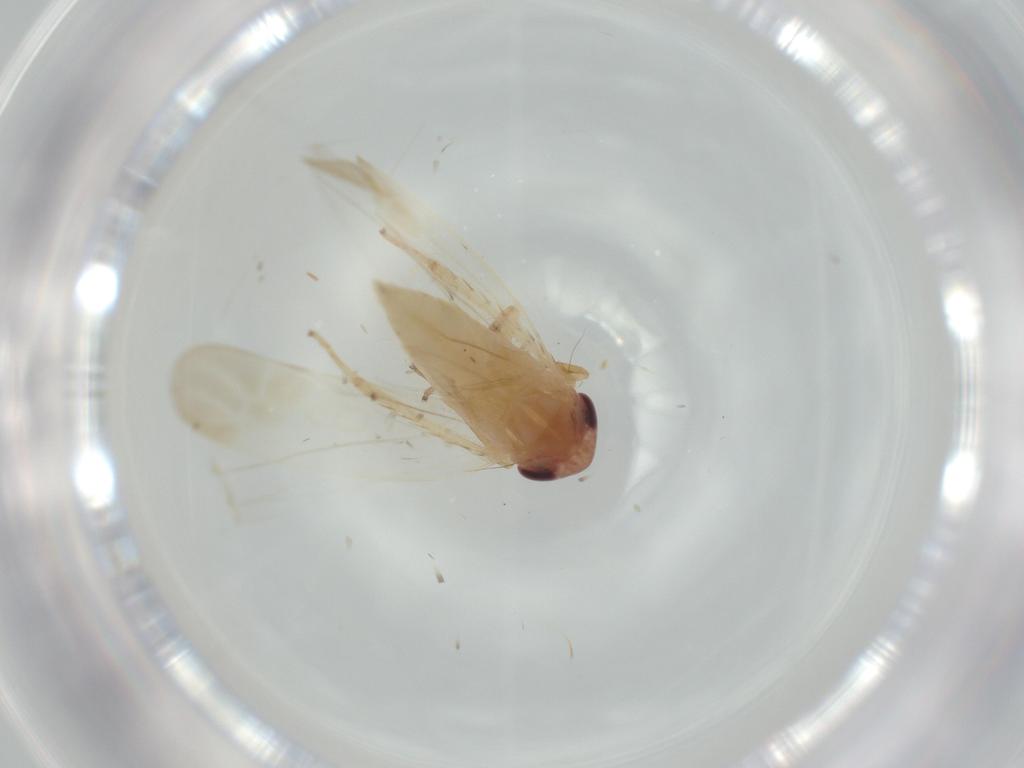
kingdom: Animalia
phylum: Arthropoda
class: Insecta
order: Hemiptera
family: Cicadellidae
